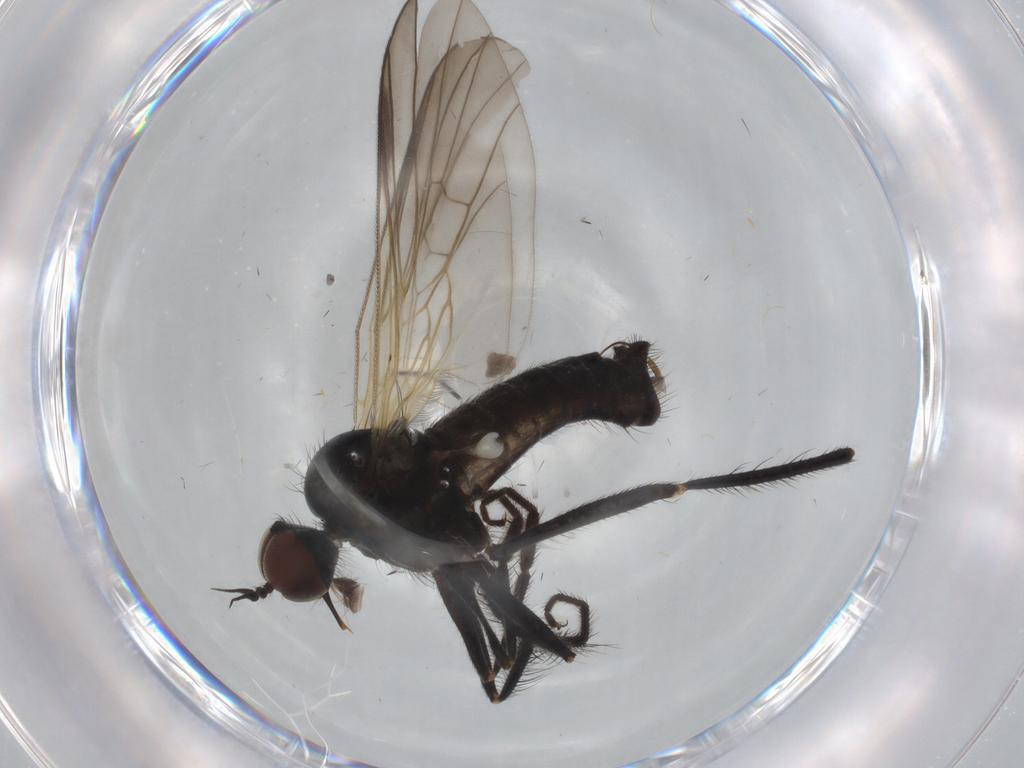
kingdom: Animalia
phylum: Arthropoda
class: Insecta
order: Diptera
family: Empididae
